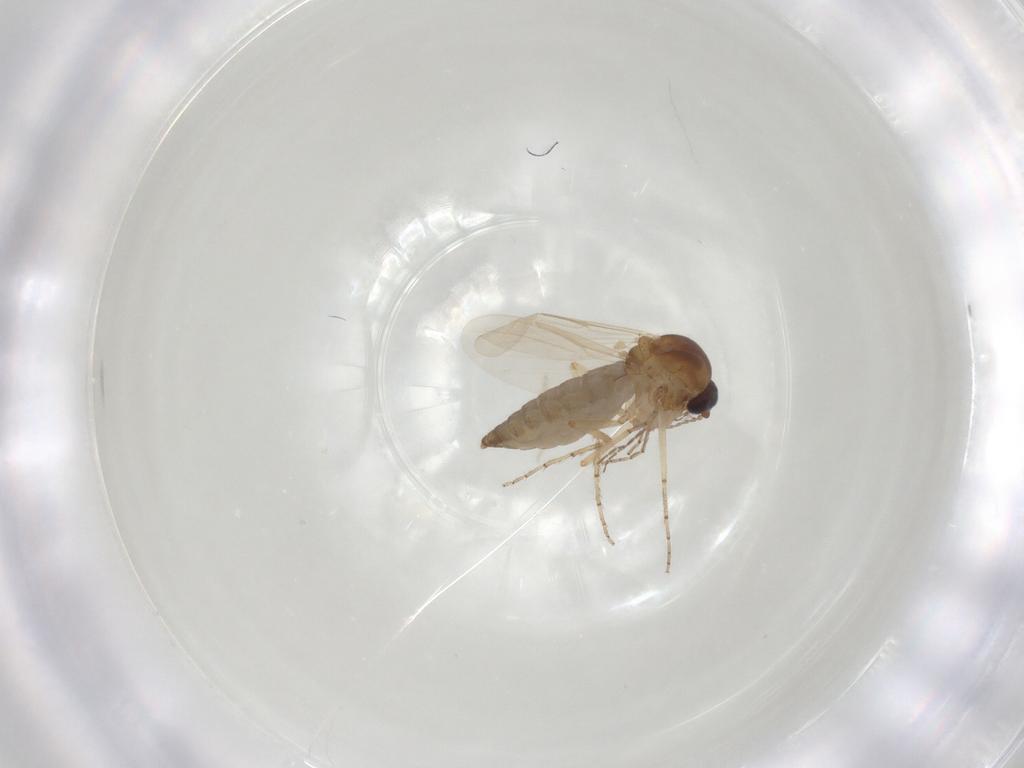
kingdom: Animalia
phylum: Arthropoda
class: Insecta
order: Diptera
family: Ceratopogonidae
